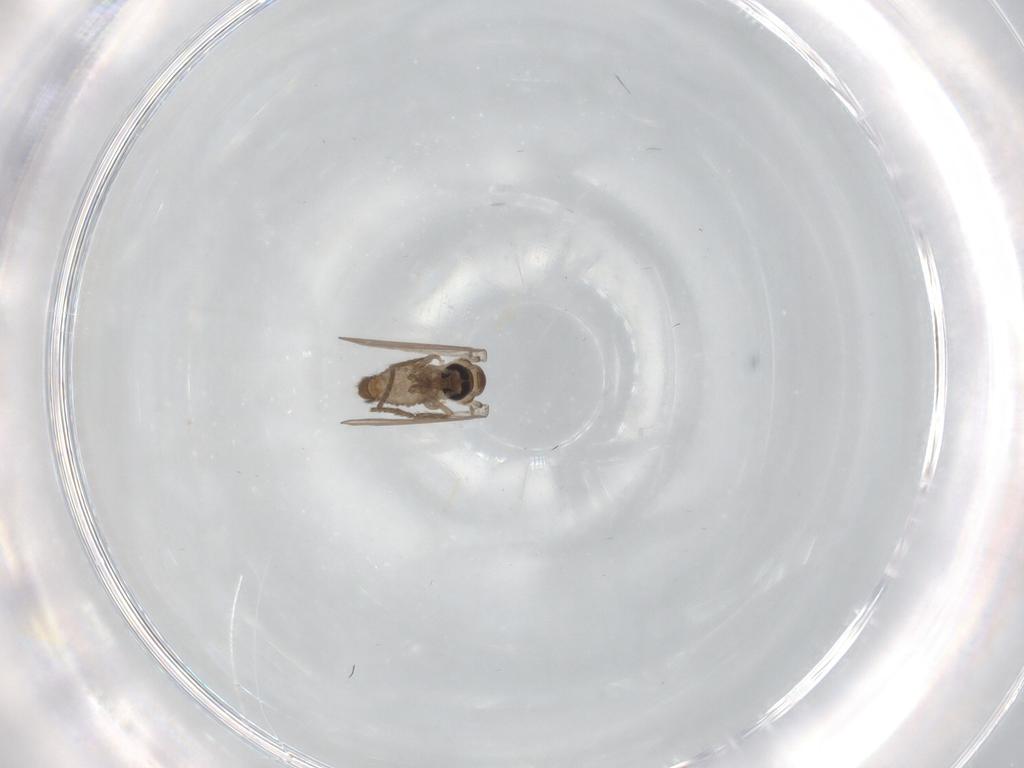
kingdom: Animalia
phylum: Arthropoda
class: Insecta
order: Diptera
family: Psychodidae
